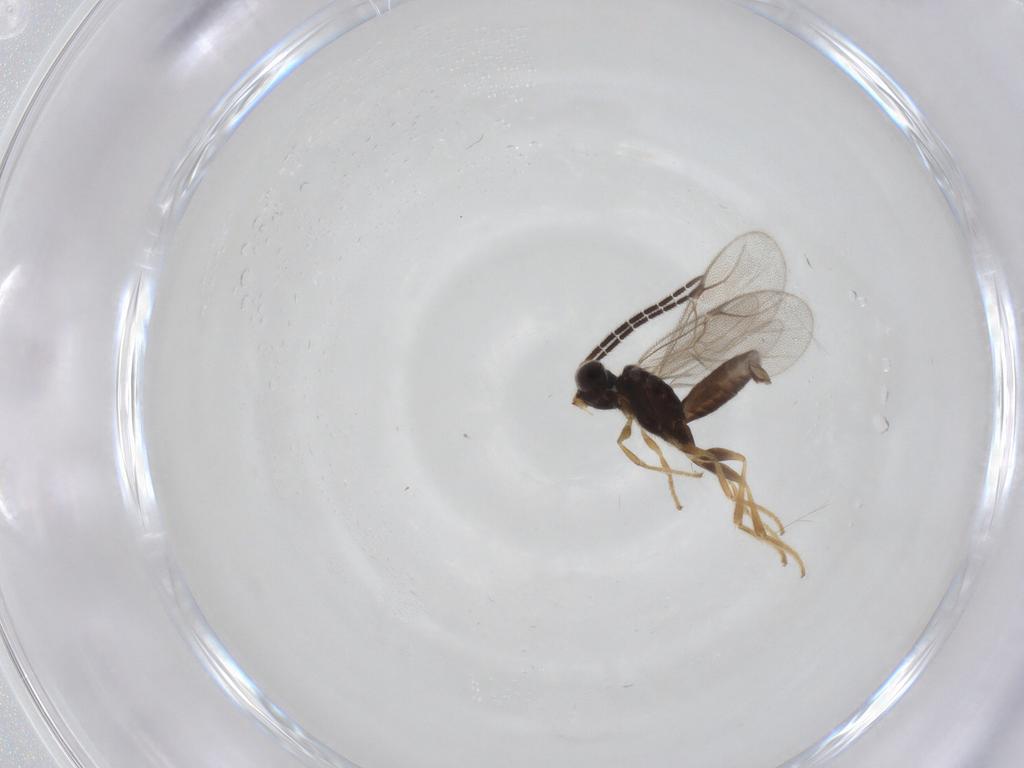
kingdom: Animalia
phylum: Arthropoda
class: Insecta
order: Hymenoptera
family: Dryinidae
